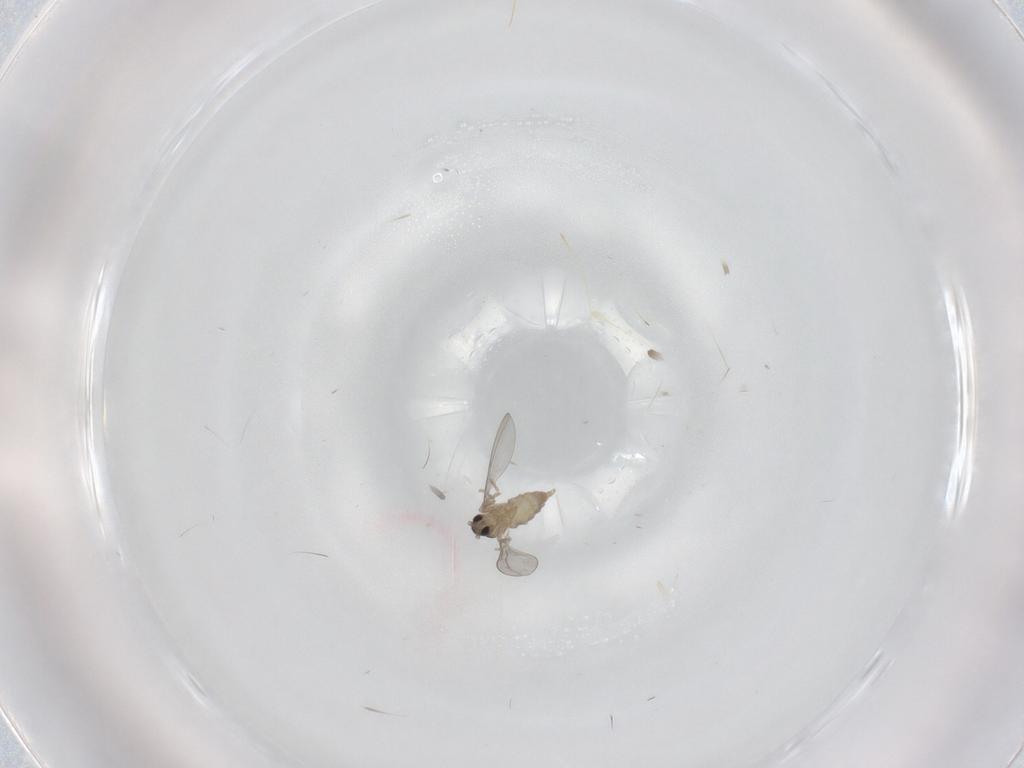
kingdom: Animalia
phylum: Arthropoda
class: Insecta
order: Diptera
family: Cecidomyiidae
